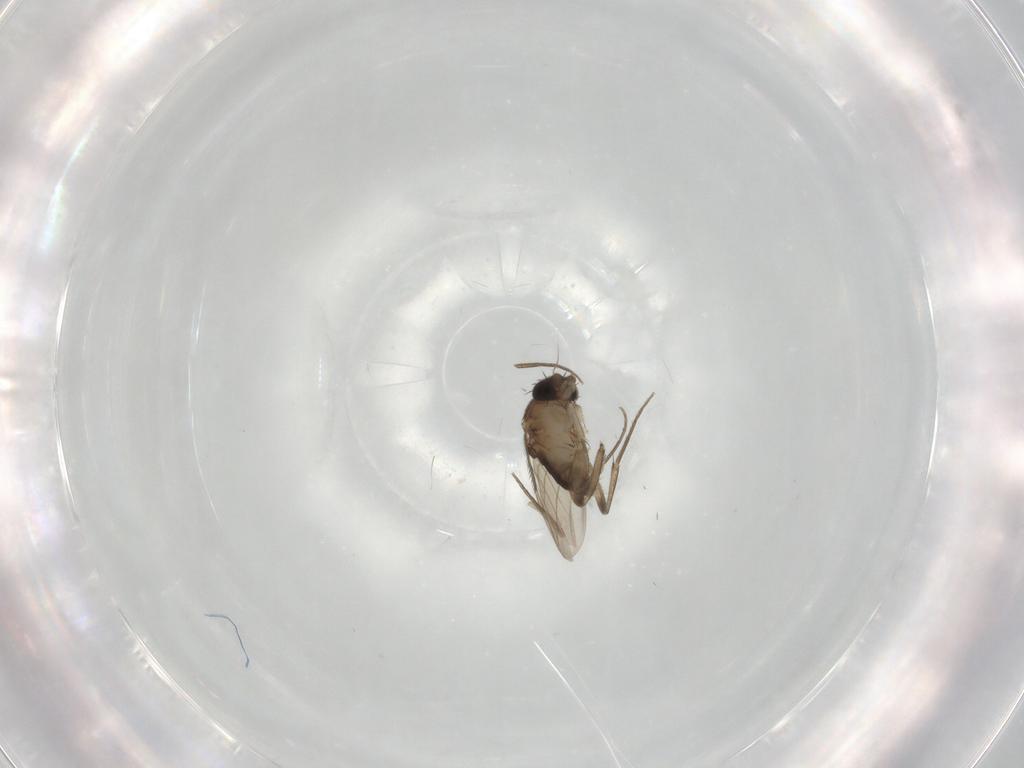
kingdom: Animalia
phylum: Arthropoda
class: Insecta
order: Diptera
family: Phoridae
